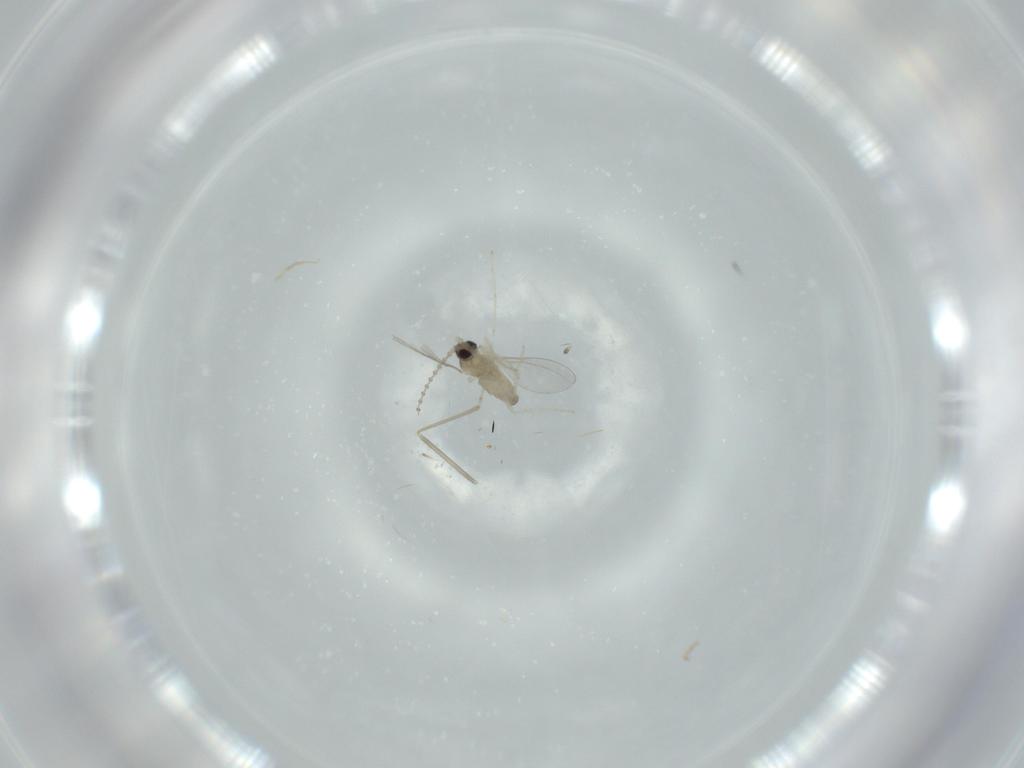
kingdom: Animalia
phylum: Arthropoda
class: Insecta
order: Diptera
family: Cecidomyiidae
